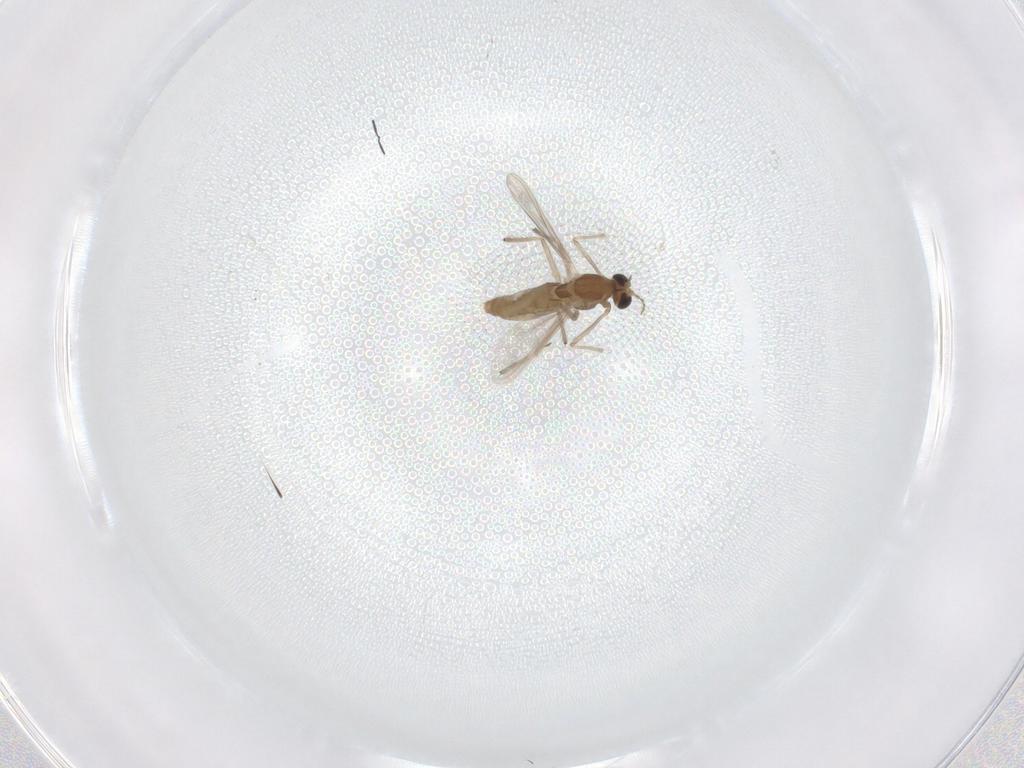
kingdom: Animalia
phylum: Arthropoda
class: Insecta
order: Diptera
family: Chironomidae
